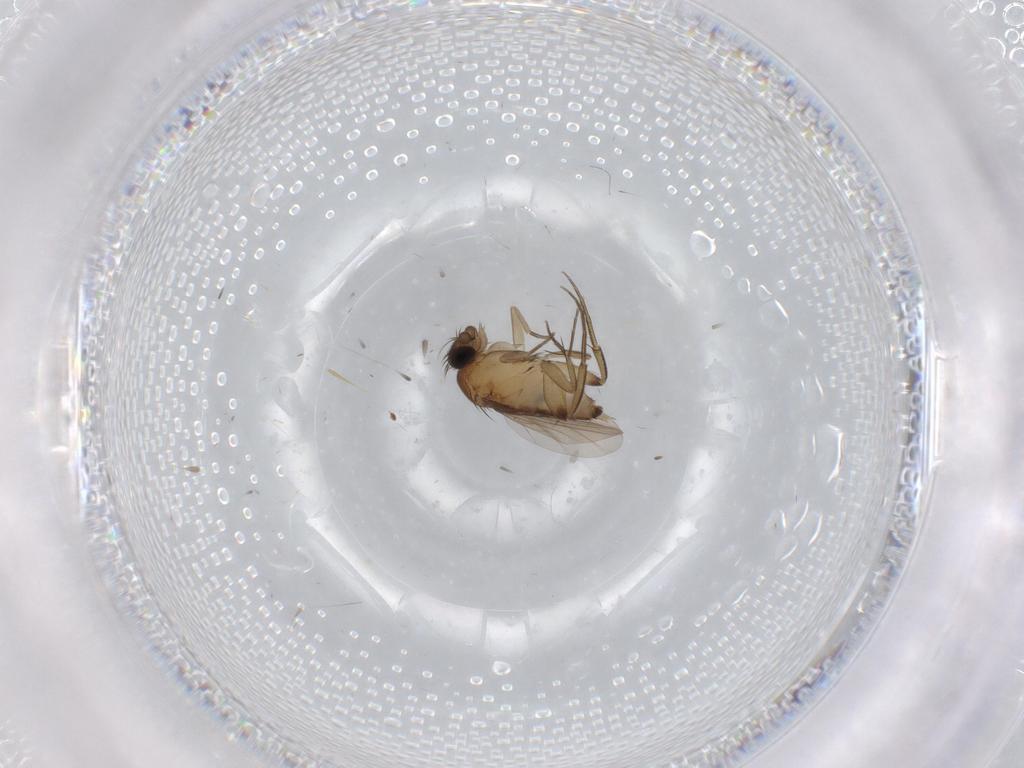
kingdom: Animalia
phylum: Arthropoda
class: Insecta
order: Diptera
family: Phoridae
